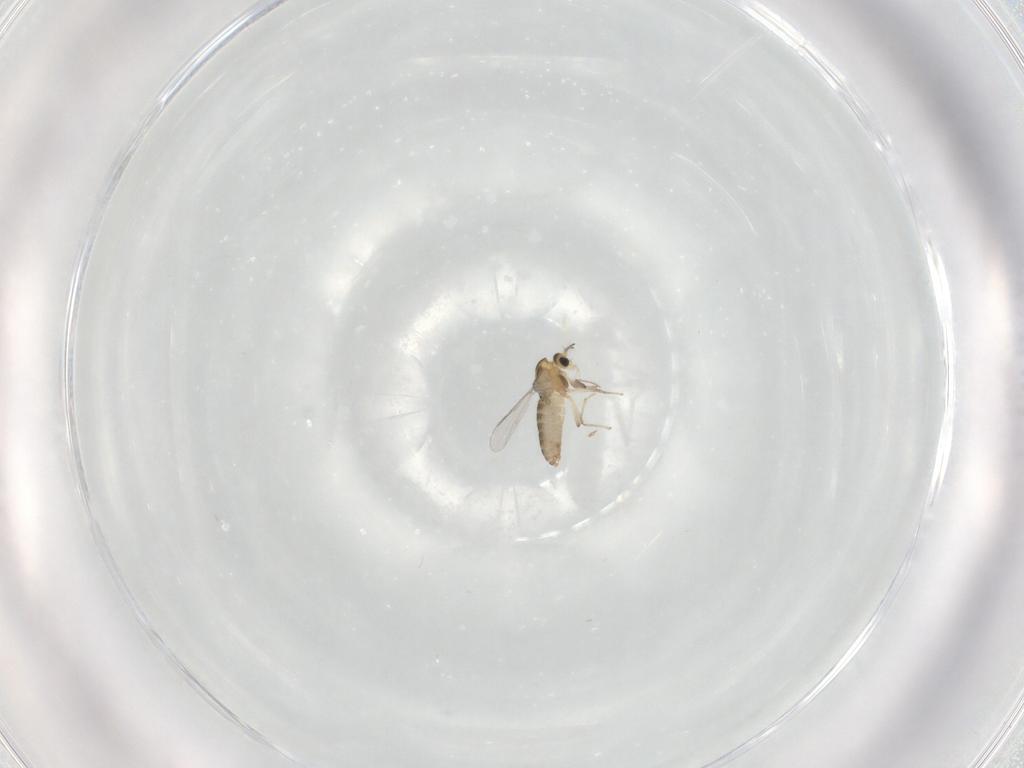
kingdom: Animalia
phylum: Arthropoda
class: Insecta
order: Diptera
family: Chironomidae
